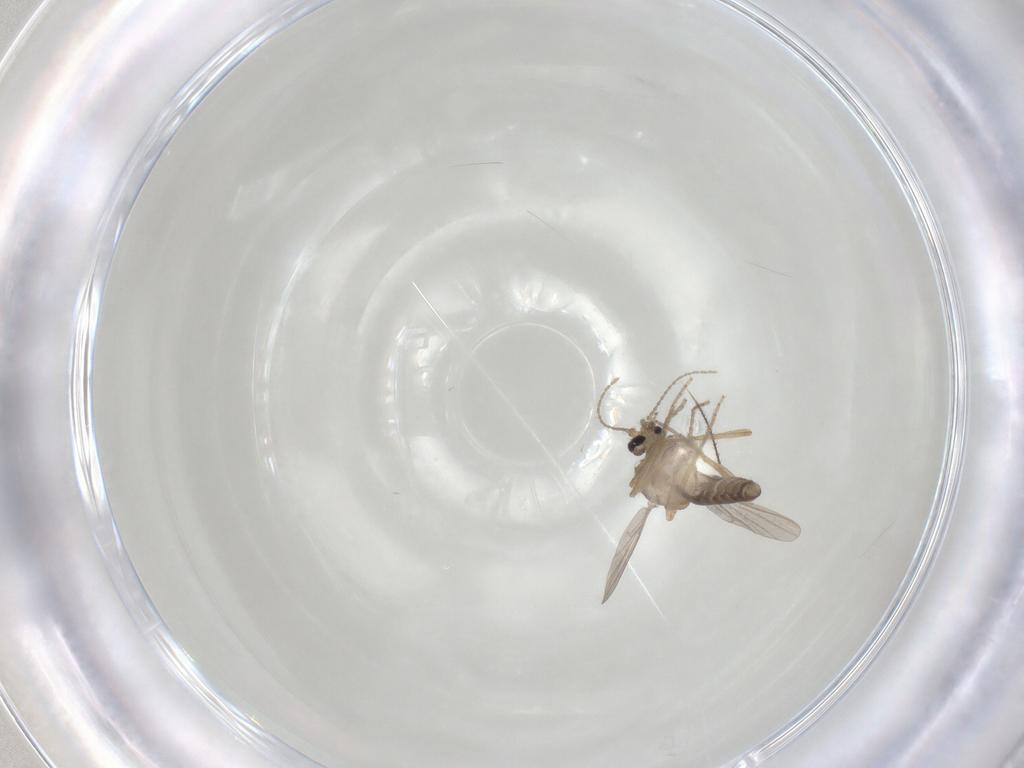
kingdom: Animalia
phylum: Arthropoda
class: Insecta
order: Diptera
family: Ceratopogonidae
